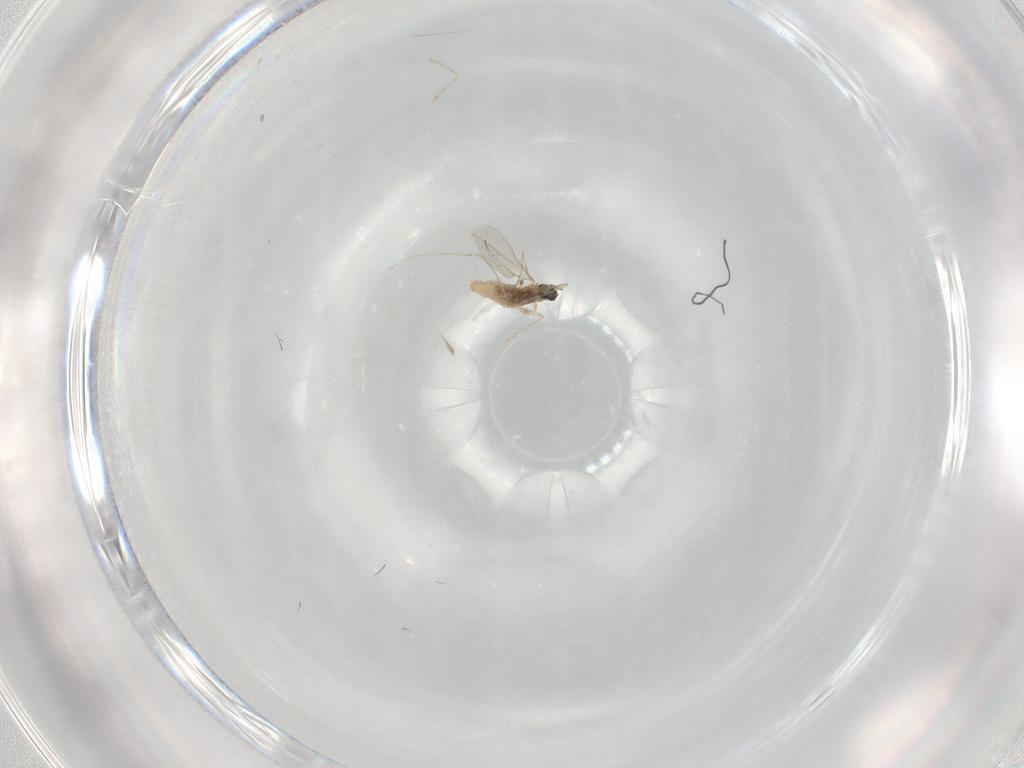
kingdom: Animalia
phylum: Arthropoda
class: Insecta
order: Diptera
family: Cecidomyiidae
